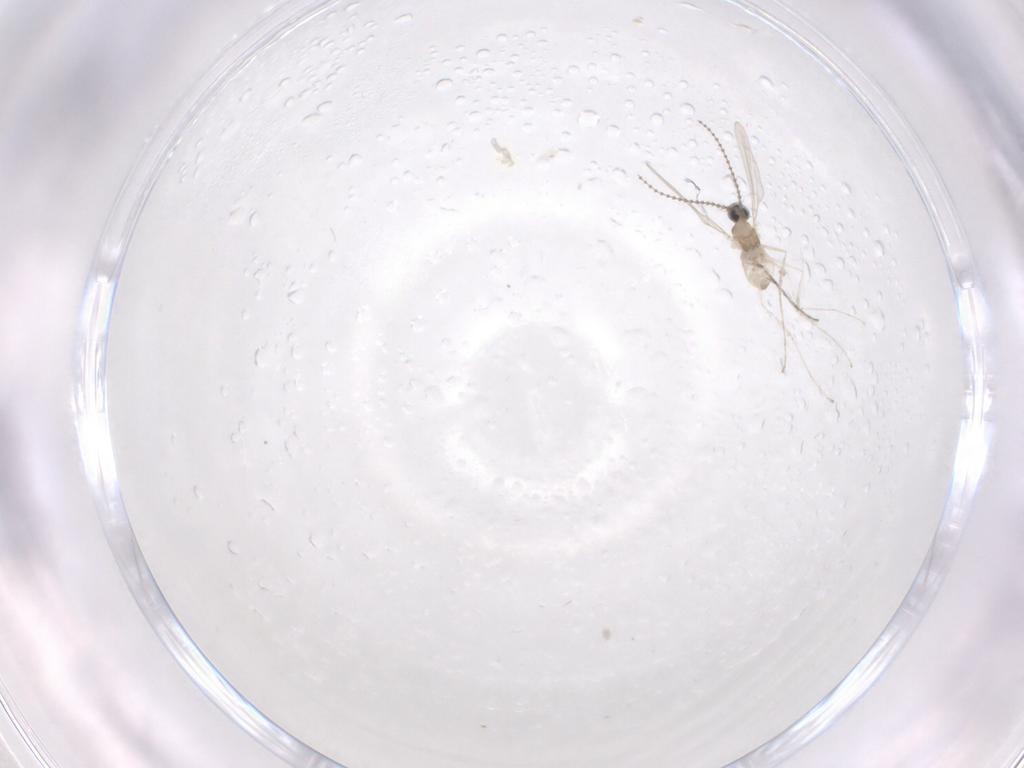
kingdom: Animalia
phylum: Arthropoda
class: Insecta
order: Diptera
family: Cecidomyiidae
